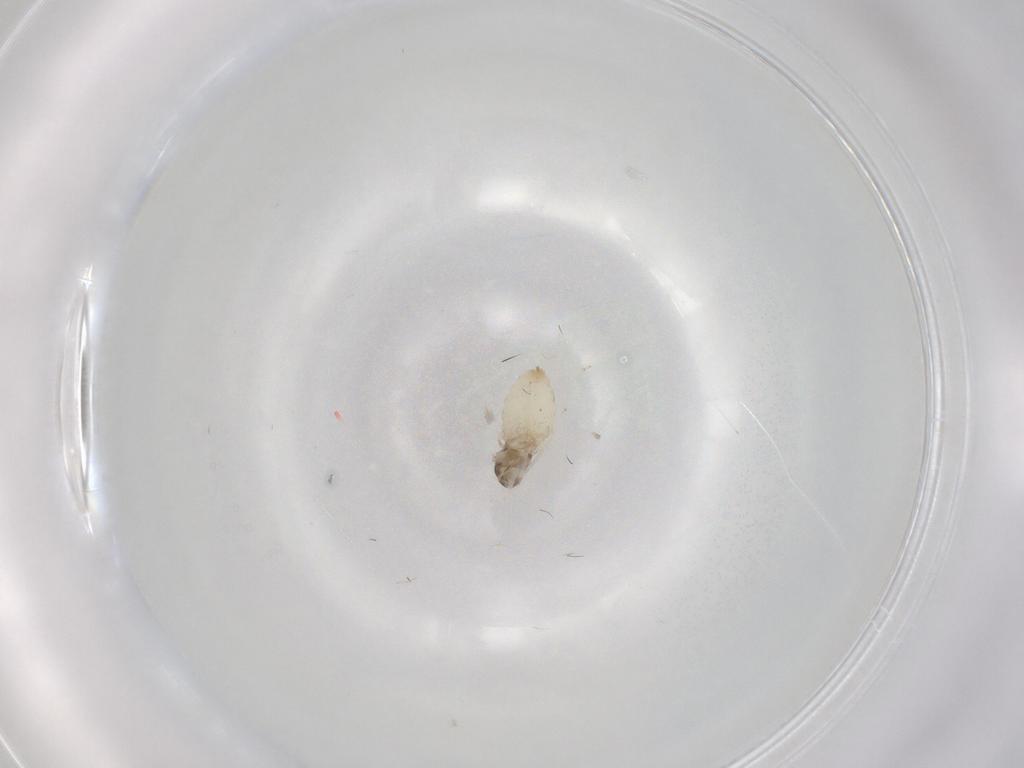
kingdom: Animalia
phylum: Arthropoda
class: Insecta
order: Diptera
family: Cecidomyiidae
